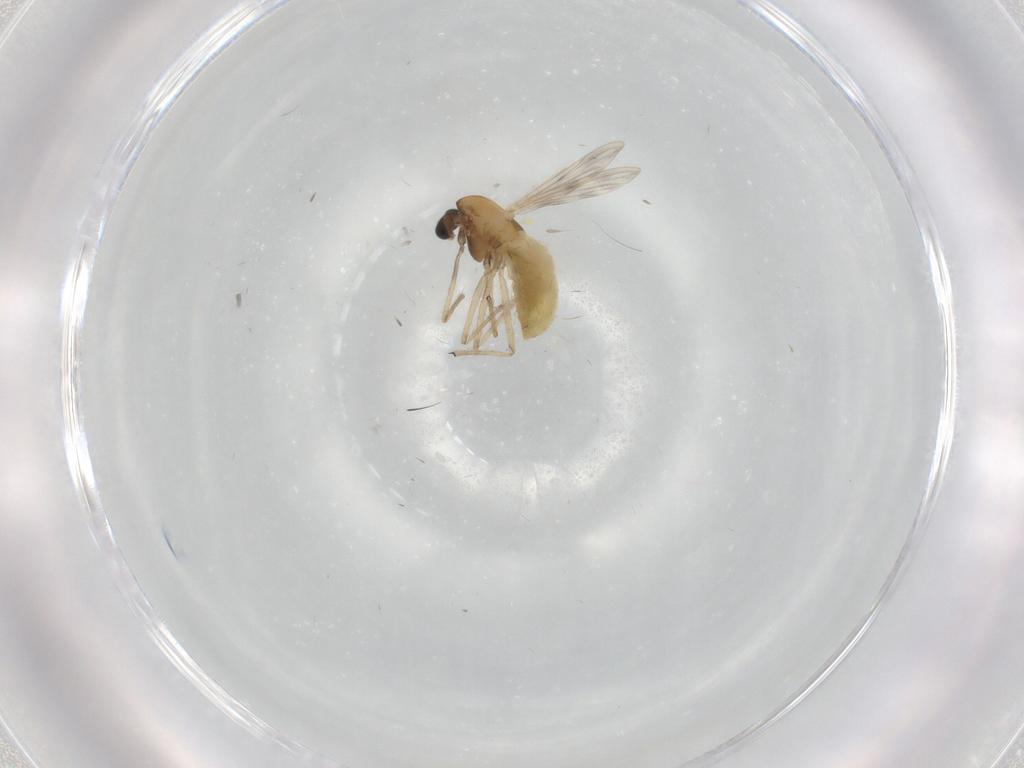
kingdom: Animalia
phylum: Arthropoda
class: Insecta
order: Diptera
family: Chironomidae
